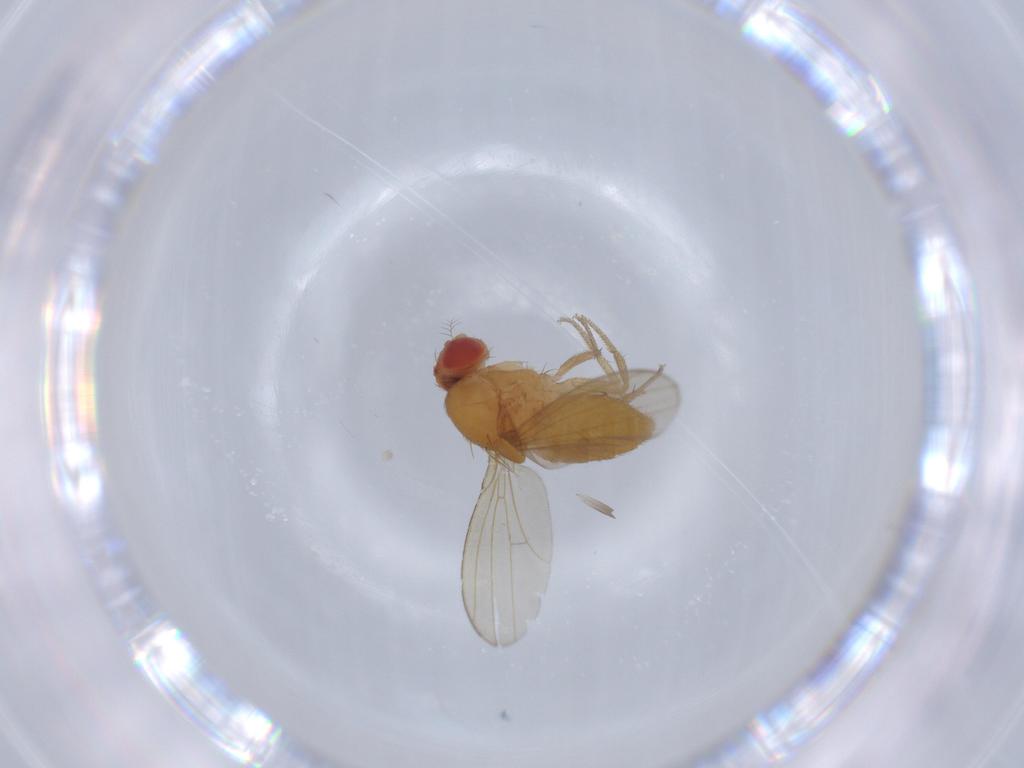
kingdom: Animalia
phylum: Arthropoda
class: Insecta
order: Diptera
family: Drosophilidae
